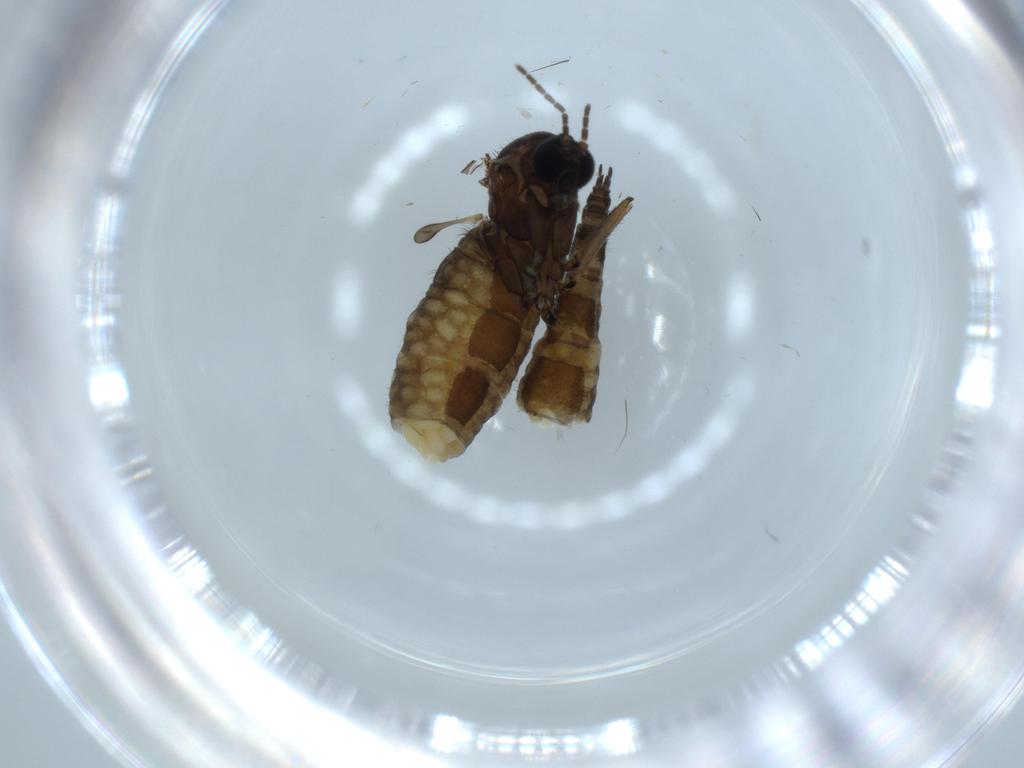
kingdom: Animalia
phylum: Arthropoda
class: Insecta
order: Diptera
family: Sciaridae
